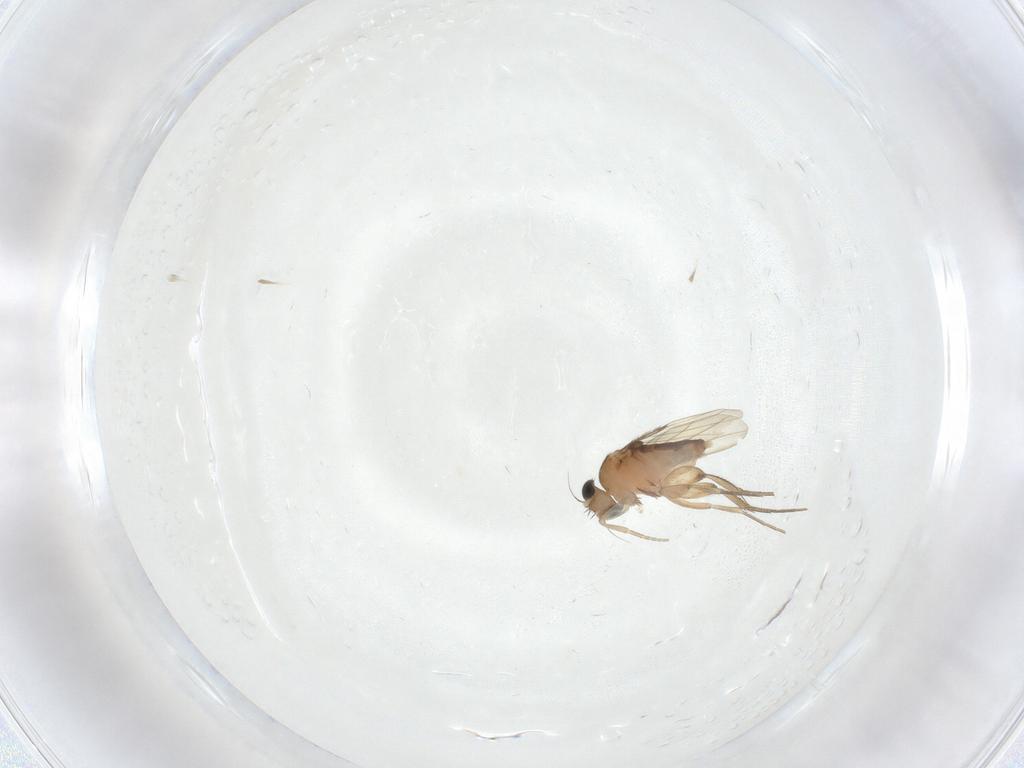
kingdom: Animalia
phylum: Arthropoda
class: Insecta
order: Diptera
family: Phoridae
